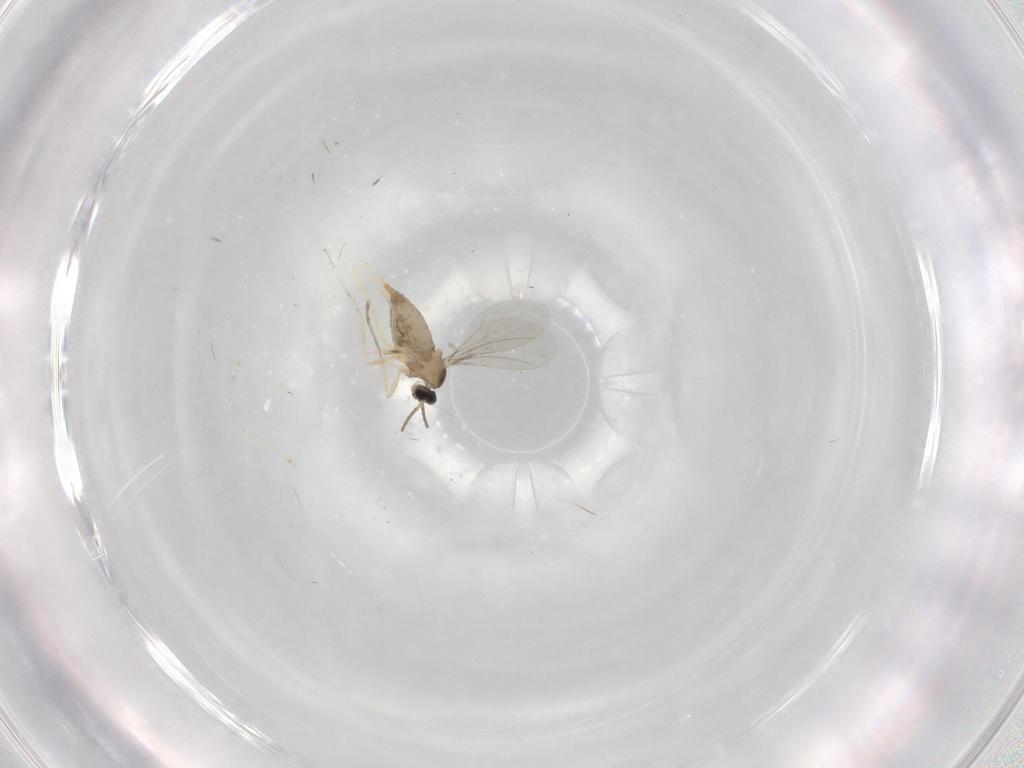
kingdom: Animalia
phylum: Arthropoda
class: Insecta
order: Diptera
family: Cecidomyiidae
